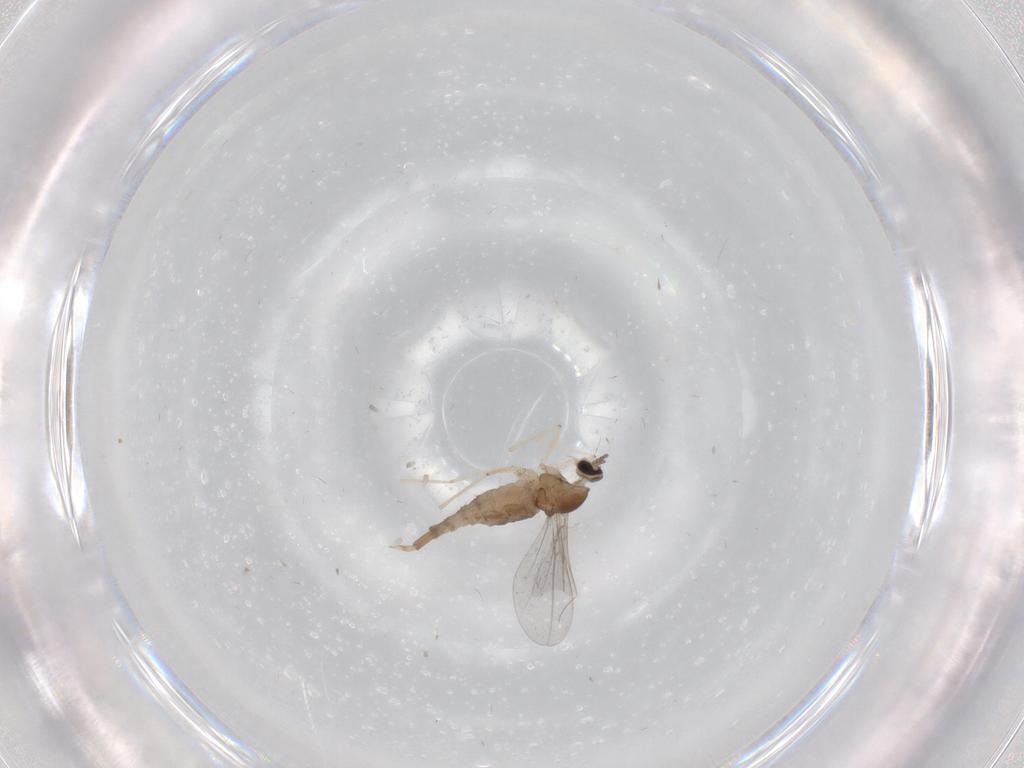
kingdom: Animalia
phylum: Arthropoda
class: Insecta
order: Diptera
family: Cecidomyiidae
